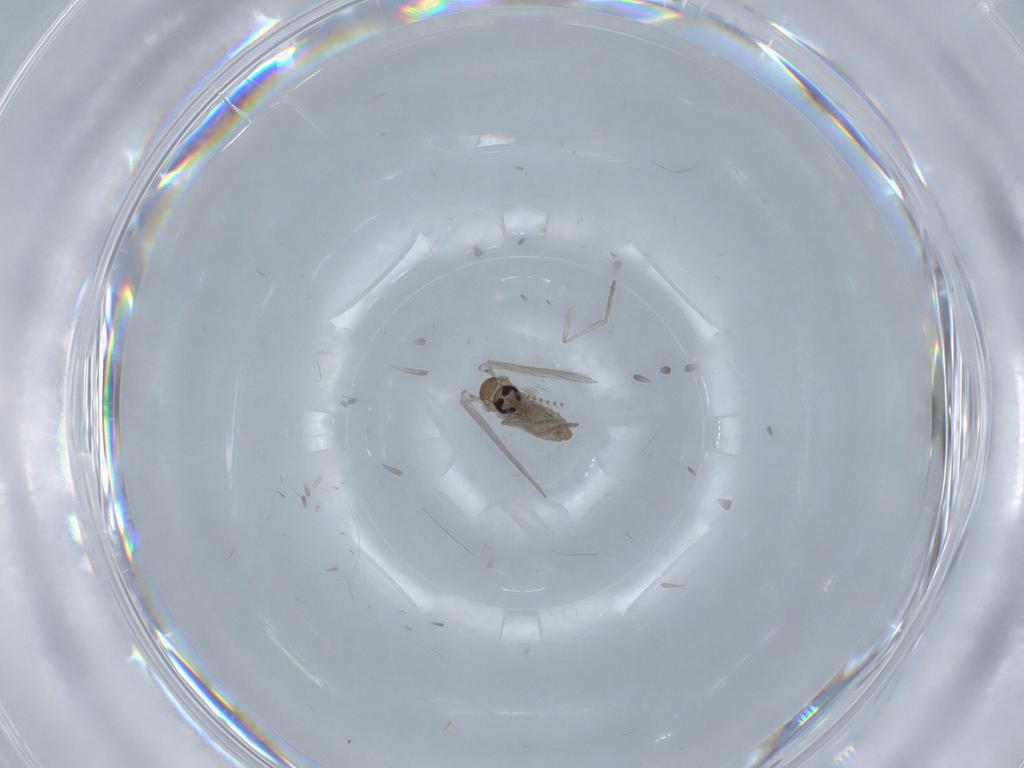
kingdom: Animalia
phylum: Arthropoda
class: Insecta
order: Diptera
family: Psychodidae
